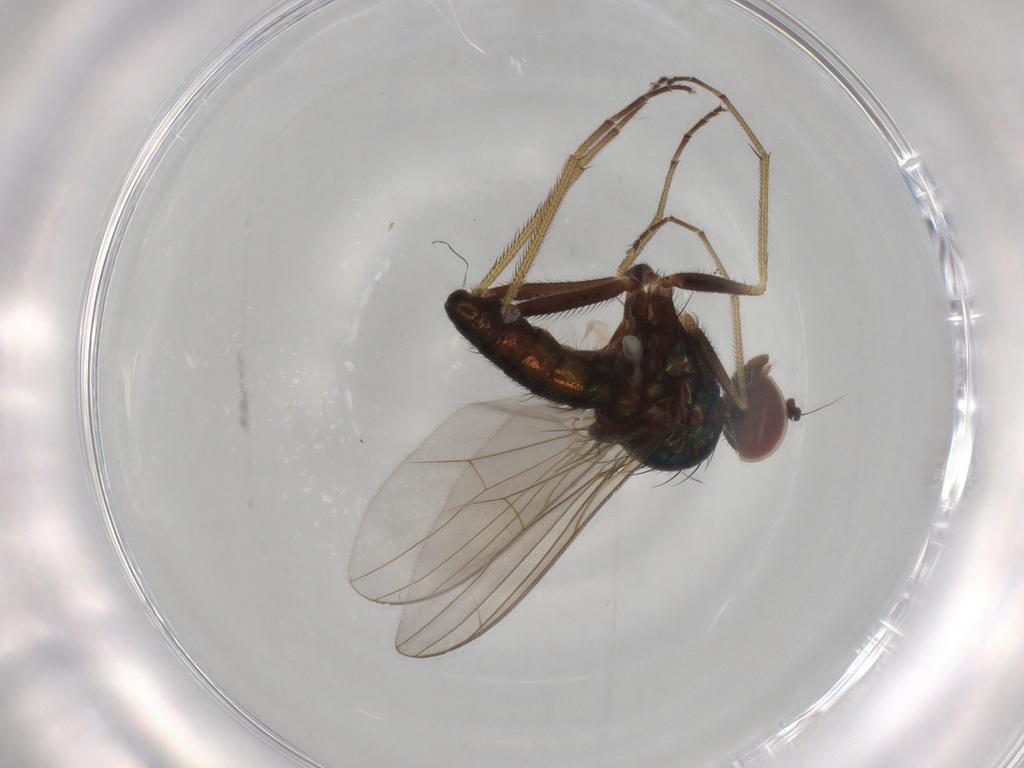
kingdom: Animalia
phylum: Arthropoda
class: Insecta
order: Diptera
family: Dolichopodidae
